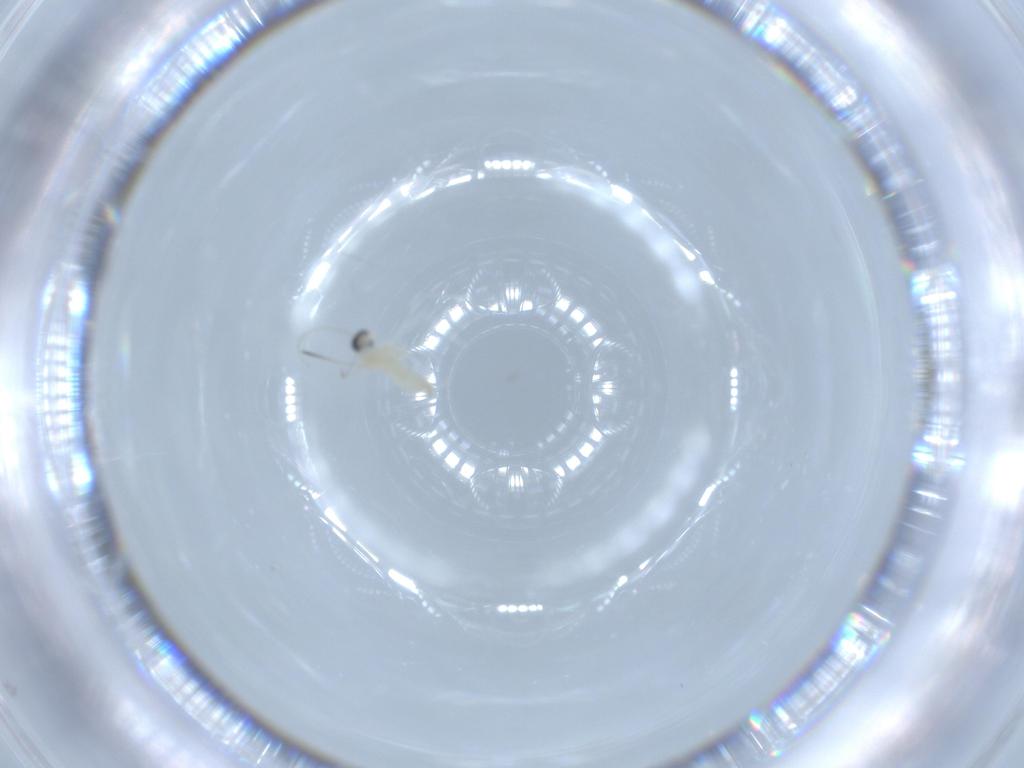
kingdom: Animalia
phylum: Arthropoda
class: Insecta
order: Diptera
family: Cecidomyiidae
